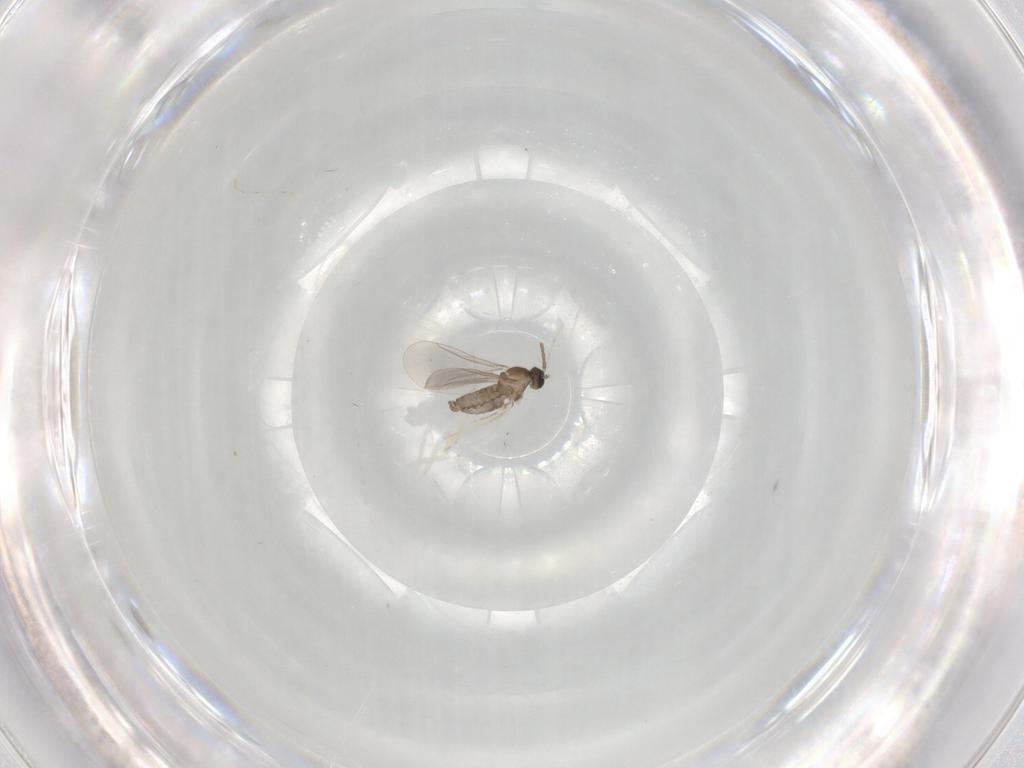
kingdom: Animalia
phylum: Arthropoda
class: Insecta
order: Diptera
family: Cecidomyiidae
